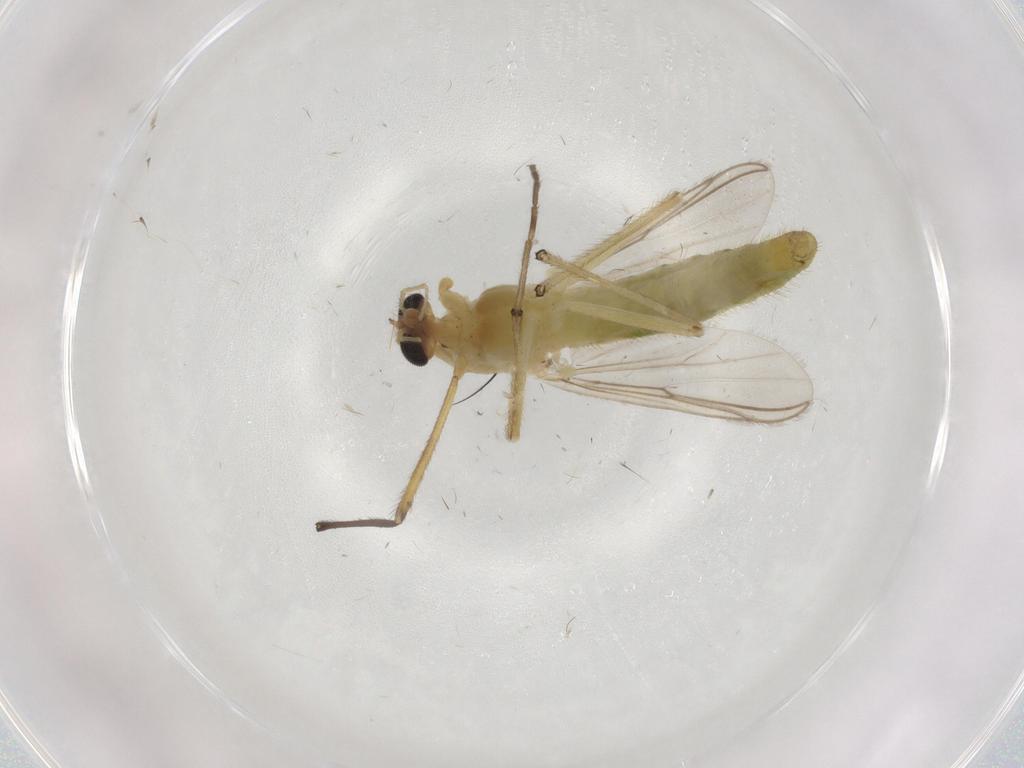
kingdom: Animalia
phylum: Arthropoda
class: Insecta
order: Diptera
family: Chironomidae
